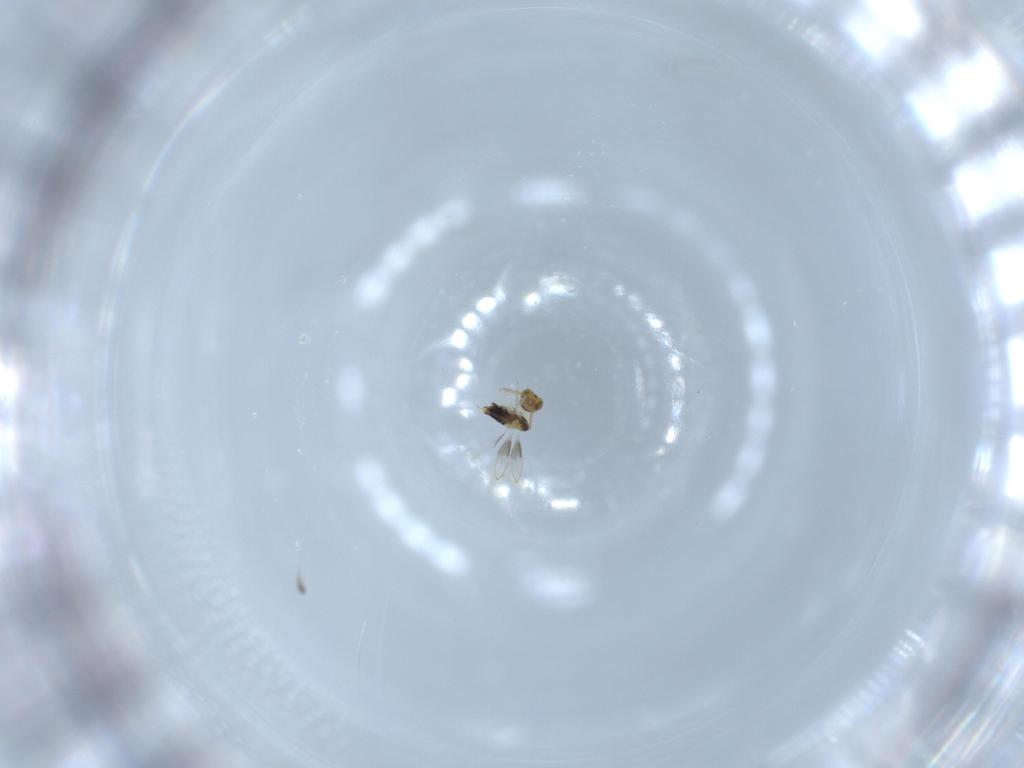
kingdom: Animalia
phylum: Arthropoda
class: Insecta
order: Hymenoptera
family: Aphelinidae
